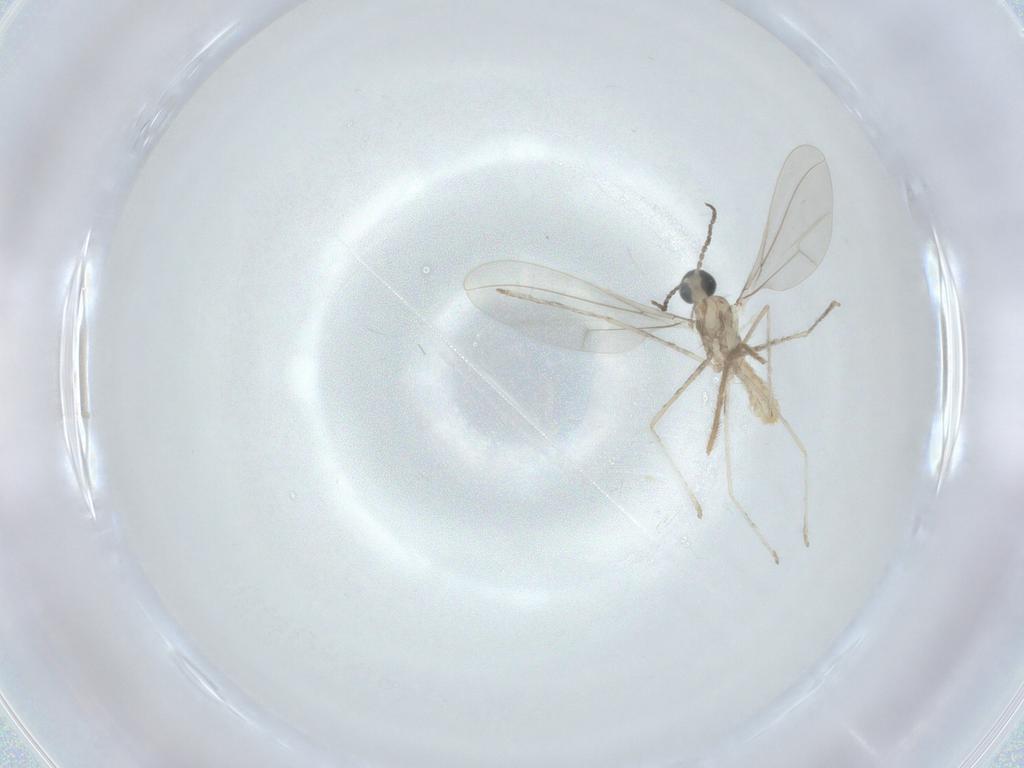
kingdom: Animalia
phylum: Arthropoda
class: Insecta
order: Diptera
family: Cecidomyiidae
